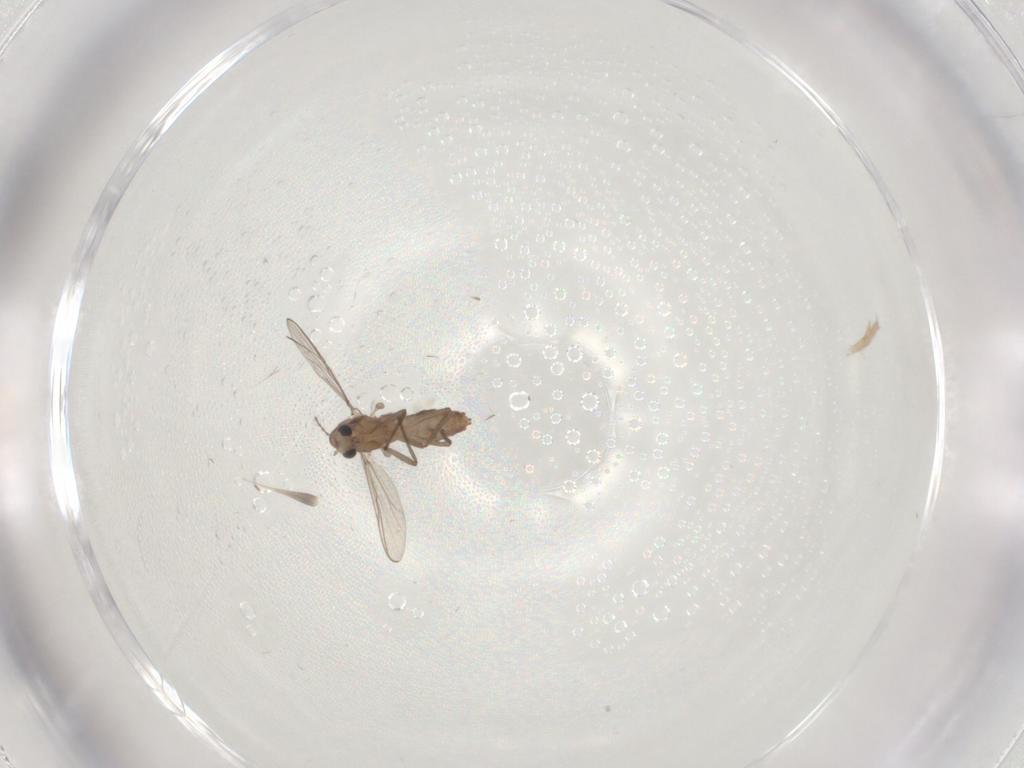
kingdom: Animalia
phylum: Arthropoda
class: Insecta
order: Diptera
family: Chironomidae
